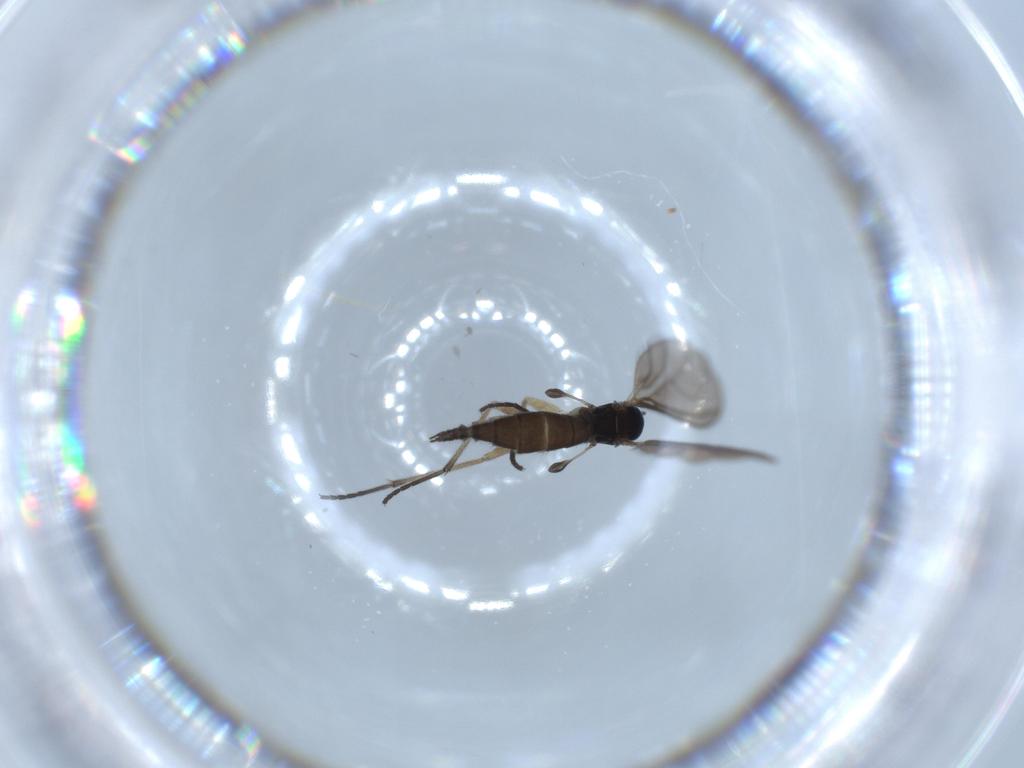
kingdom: Animalia
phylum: Arthropoda
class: Insecta
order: Diptera
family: Sciaridae
